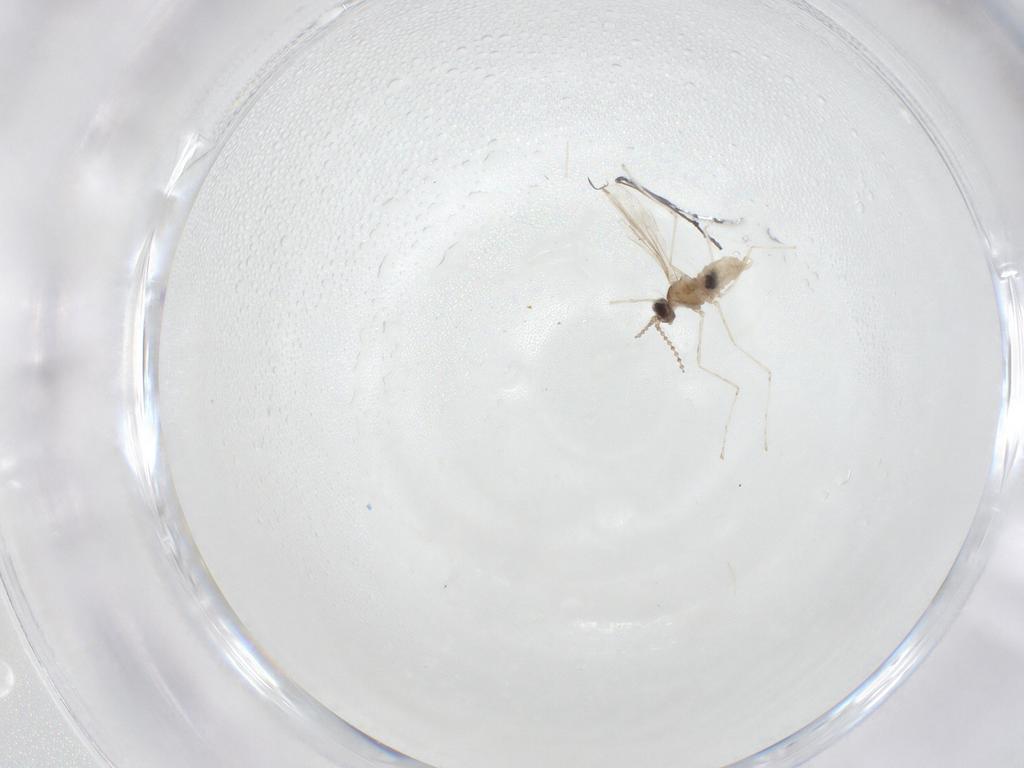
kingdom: Animalia
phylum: Arthropoda
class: Insecta
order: Diptera
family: Cecidomyiidae
